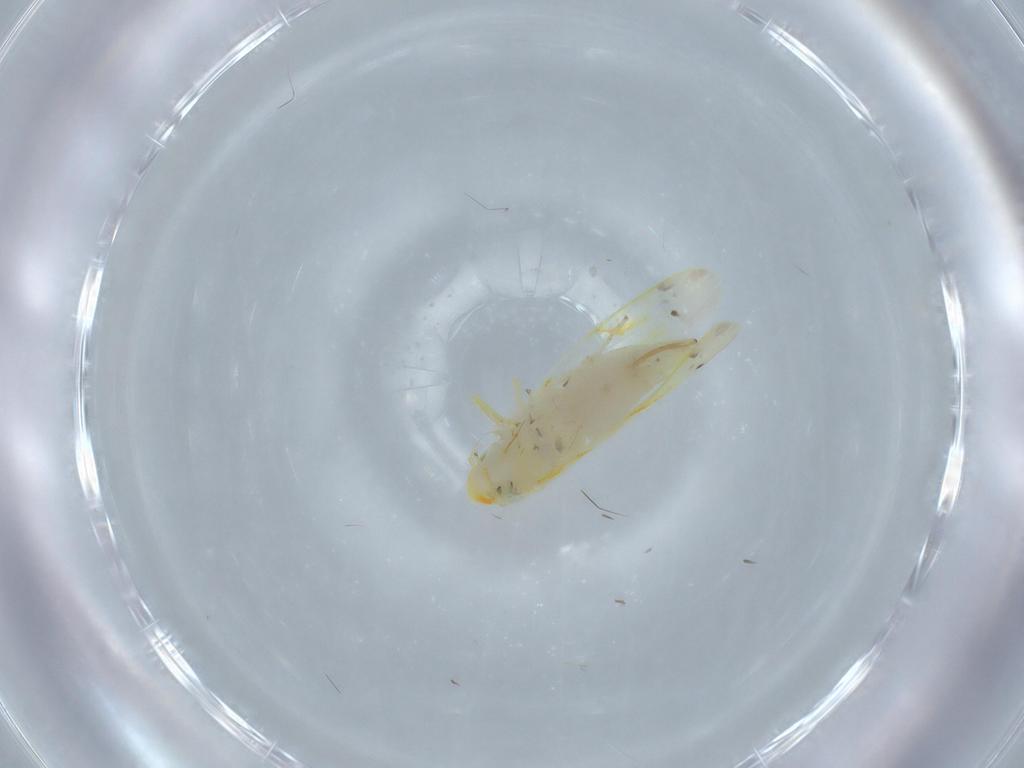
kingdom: Animalia
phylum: Arthropoda
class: Insecta
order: Hemiptera
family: Cicadellidae
